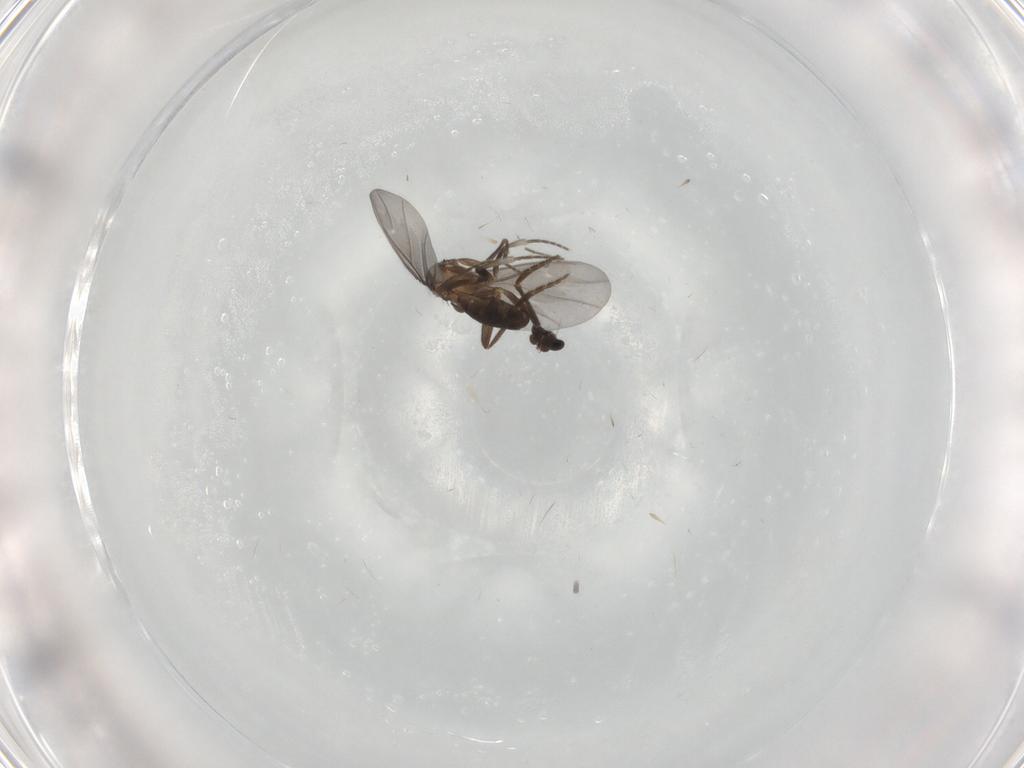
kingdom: Animalia
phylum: Arthropoda
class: Insecta
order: Diptera
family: Phoridae
